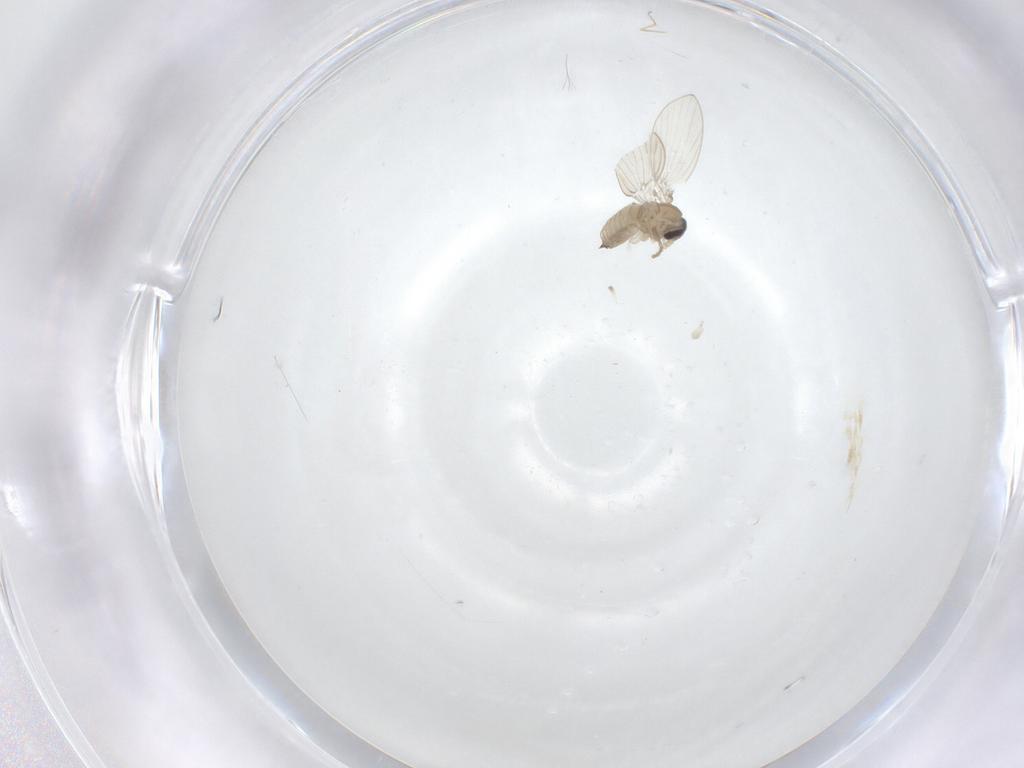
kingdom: Animalia
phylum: Arthropoda
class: Insecta
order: Diptera
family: Psychodidae
